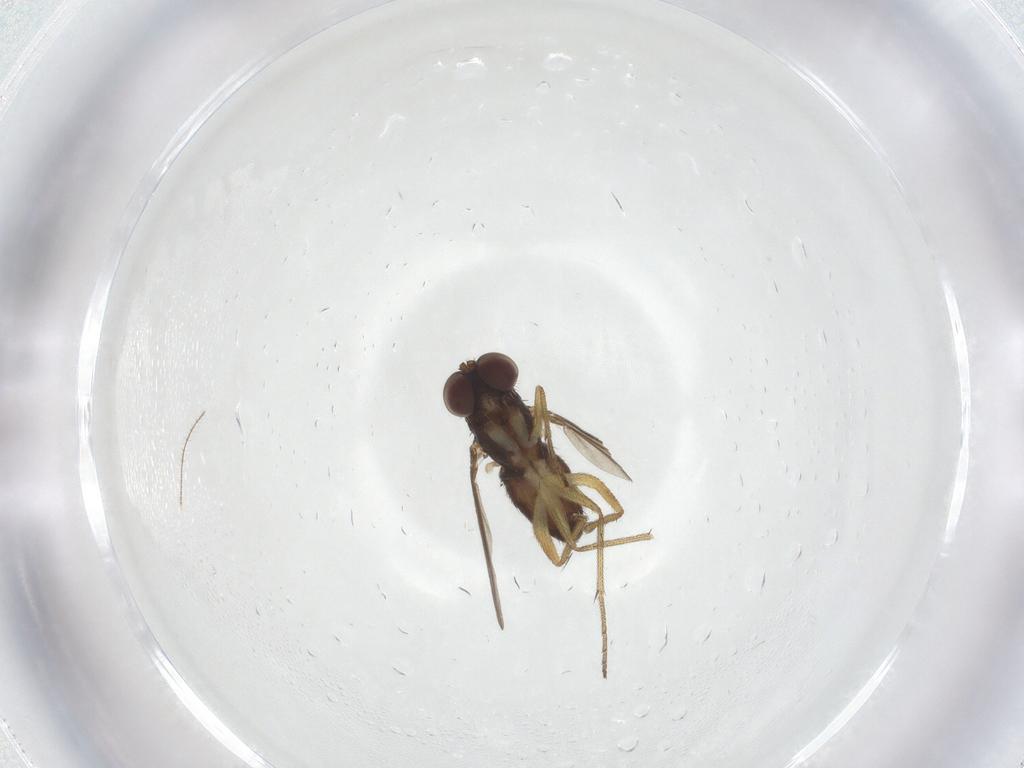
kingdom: Animalia
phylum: Arthropoda
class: Insecta
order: Diptera
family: Dolichopodidae
